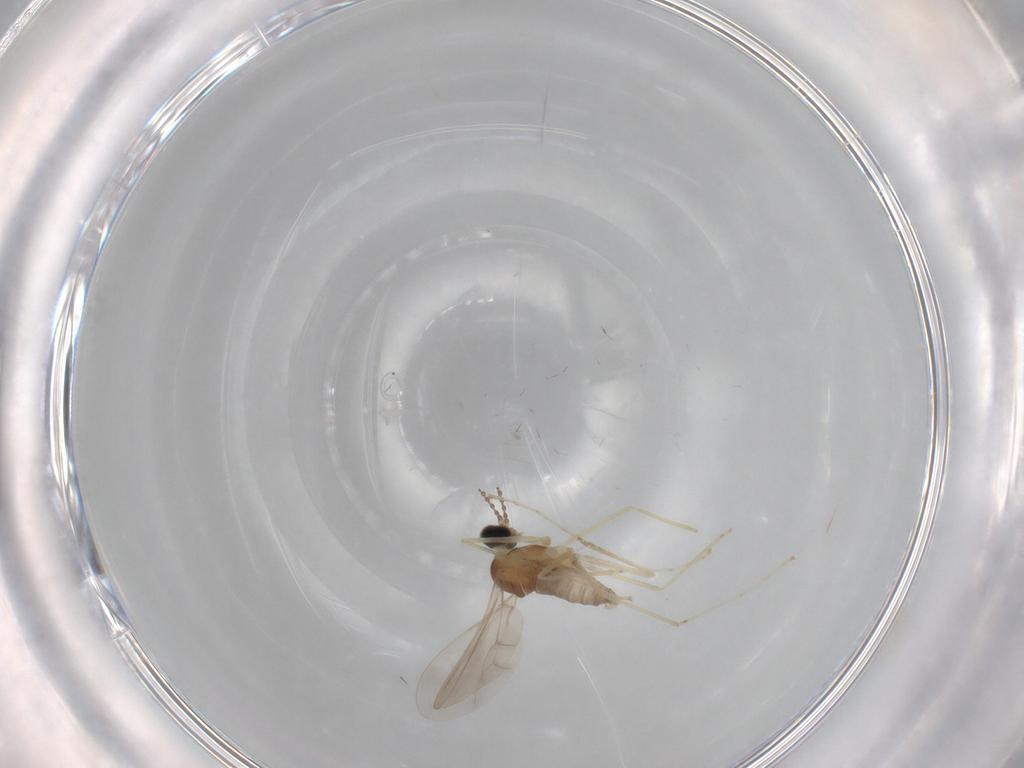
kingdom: Animalia
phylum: Arthropoda
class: Insecta
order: Diptera
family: Cecidomyiidae
